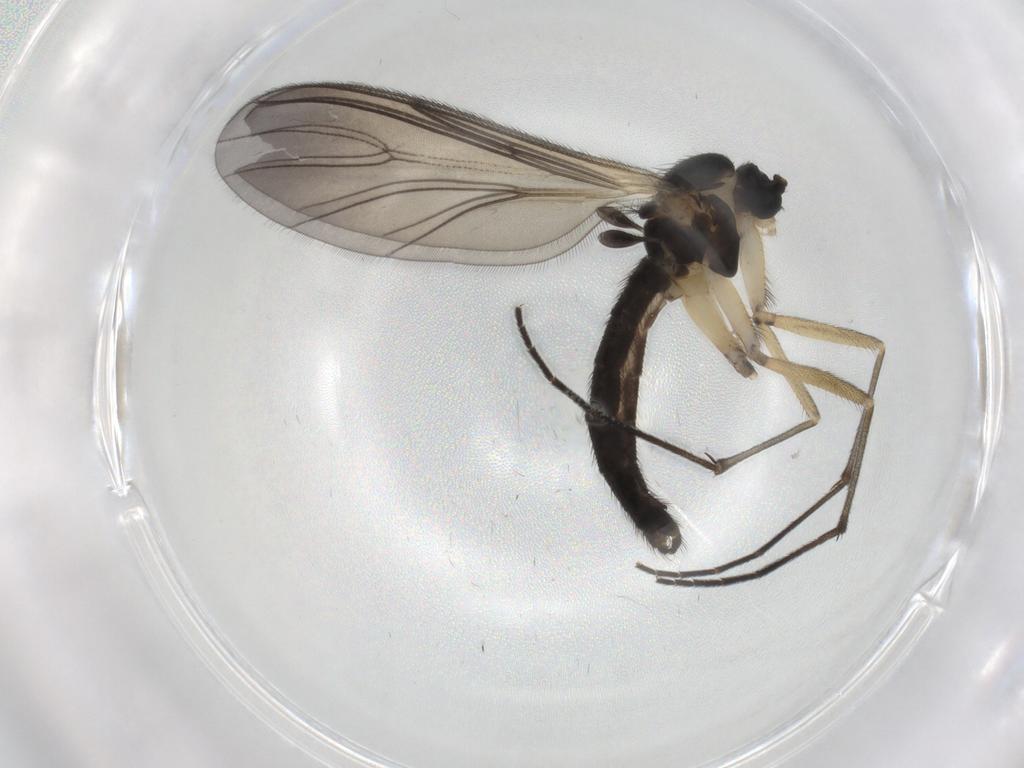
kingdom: Animalia
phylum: Arthropoda
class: Insecta
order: Diptera
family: Sciaridae
